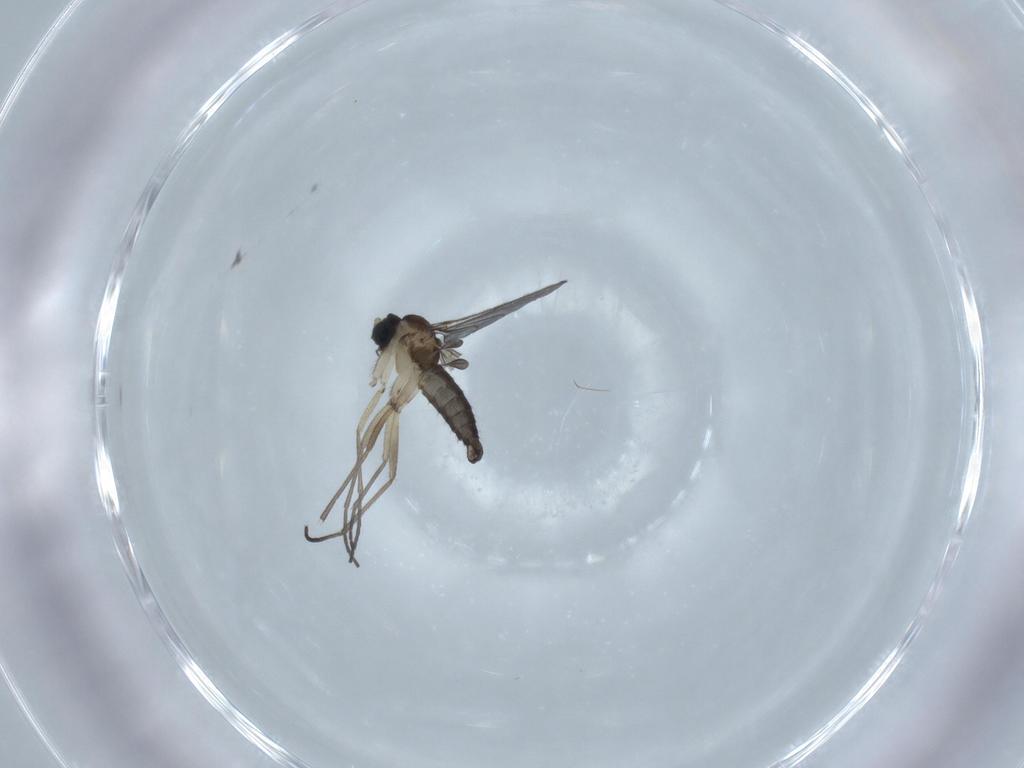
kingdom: Animalia
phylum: Arthropoda
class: Insecta
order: Diptera
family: Sciaridae
